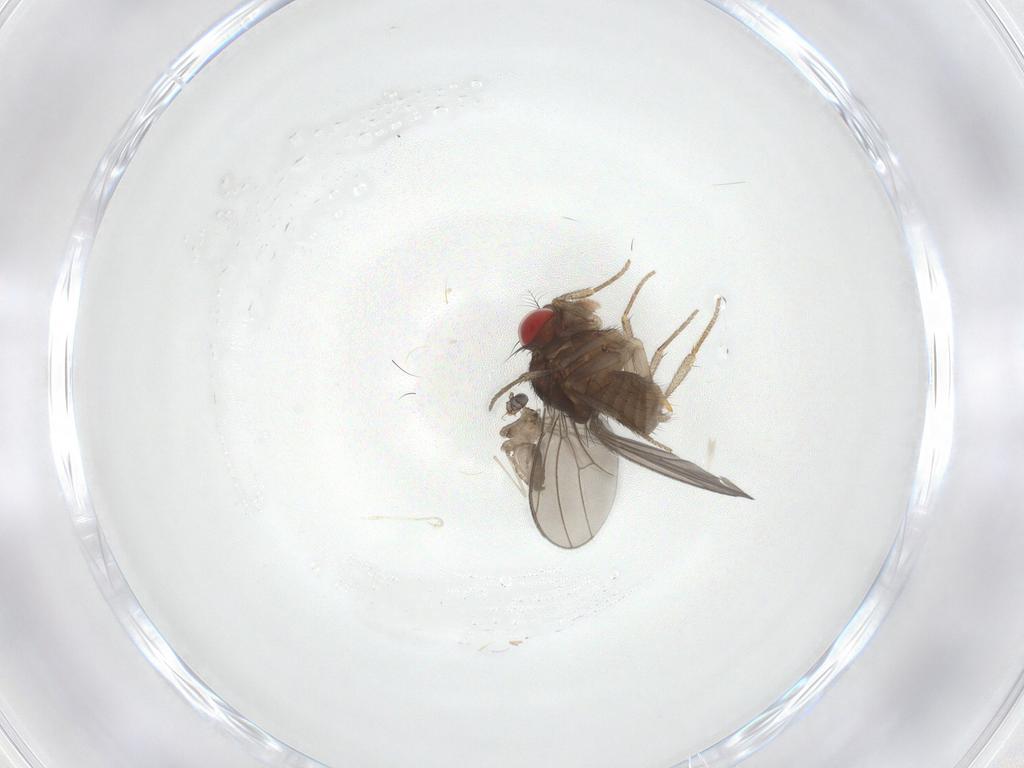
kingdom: Animalia
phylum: Arthropoda
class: Insecta
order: Diptera
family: Drosophilidae
